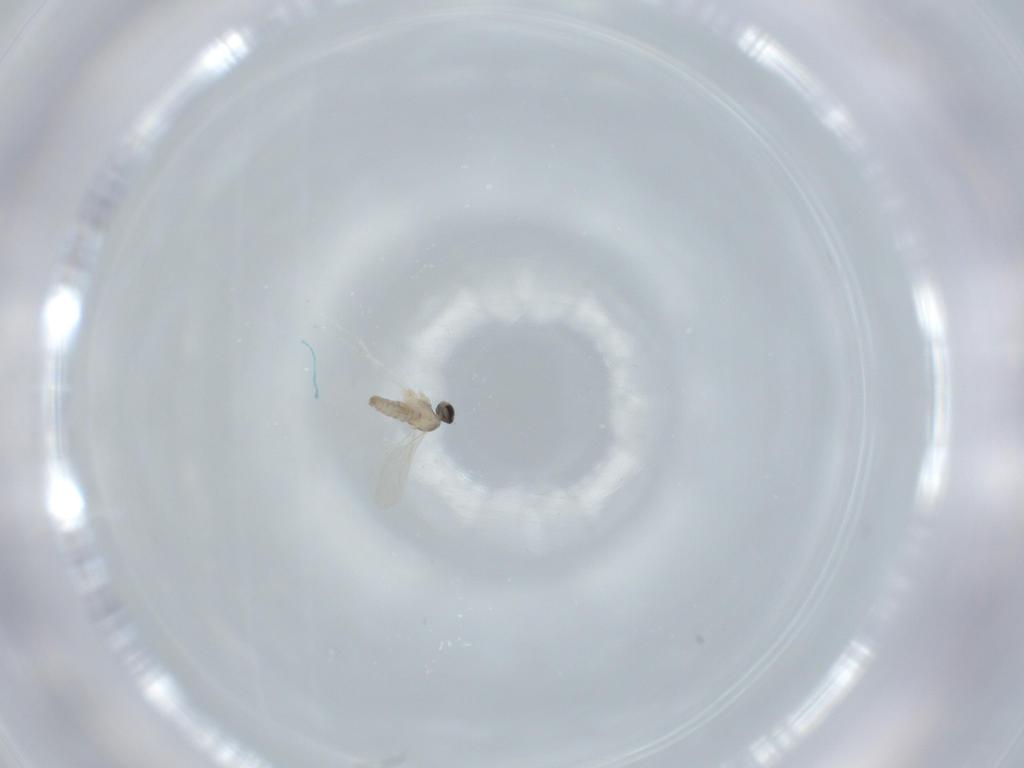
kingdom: Animalia
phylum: Arthropoda
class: Insecta
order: Diptera
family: Cecidomyiidae
